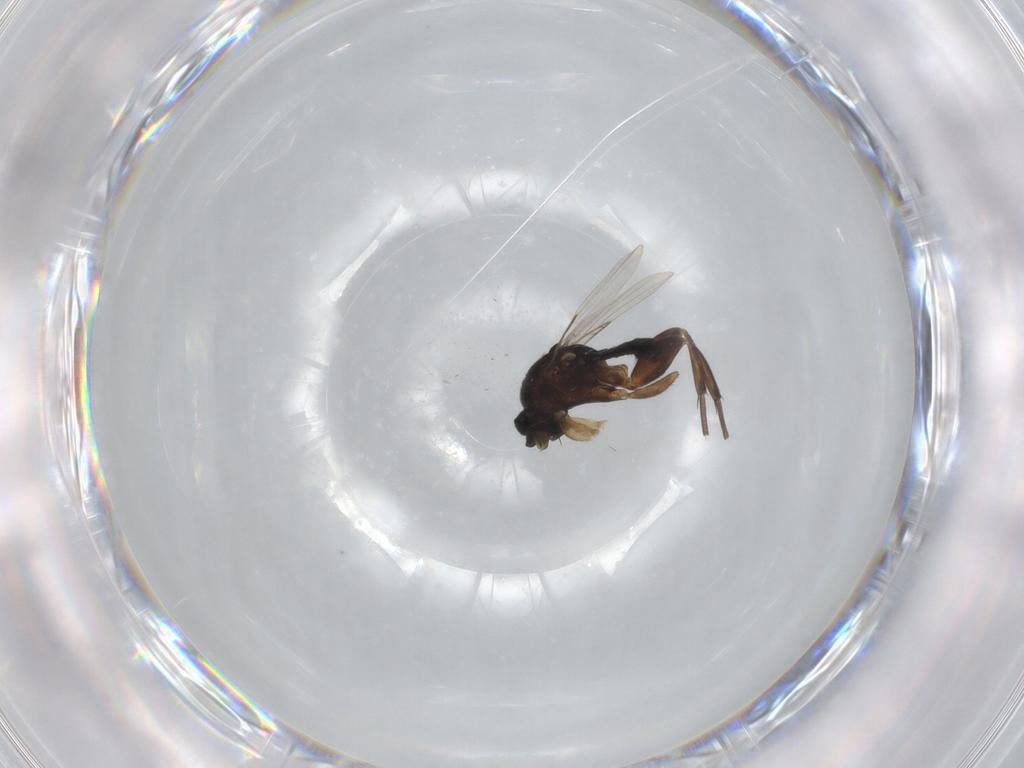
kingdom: Animalia
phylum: Arthropoda
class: Insecta
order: Diptera
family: Phoridae
